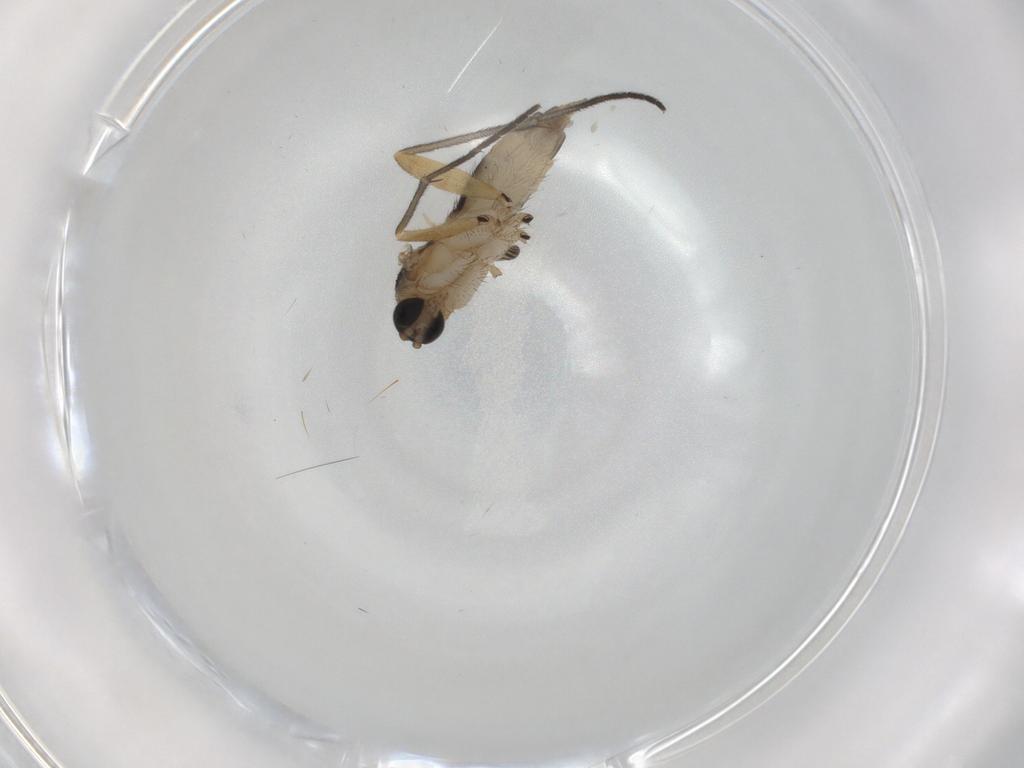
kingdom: Animalia
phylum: Arthropoda
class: Insecta
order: Diptera
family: Sciaridae
